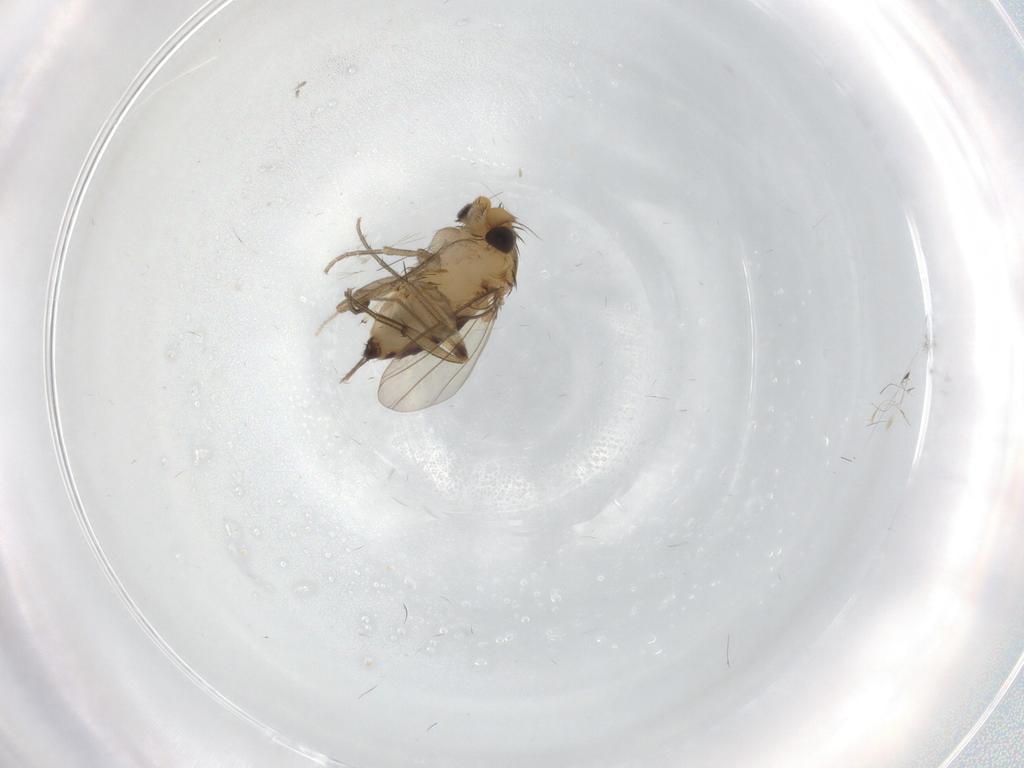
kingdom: Animalia
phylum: Arthropoda
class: Insecta
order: Diptera
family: Chironomidae
